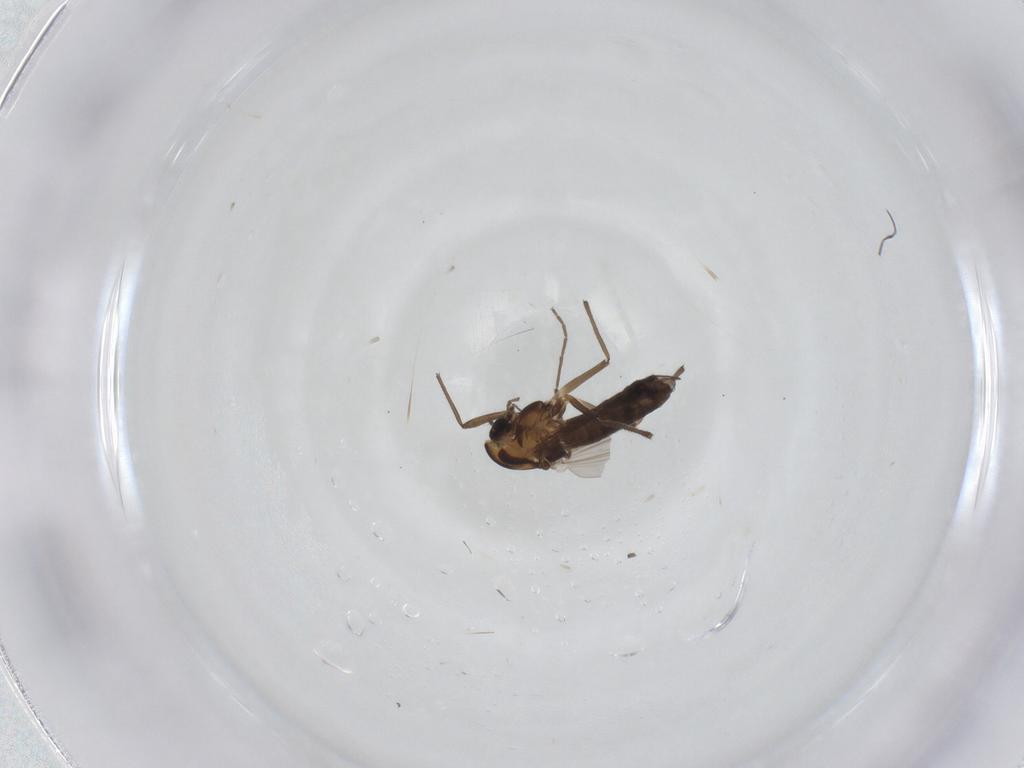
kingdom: Animalia
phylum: Arthropoda
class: Insecta
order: Diptera
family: Chironomidae
